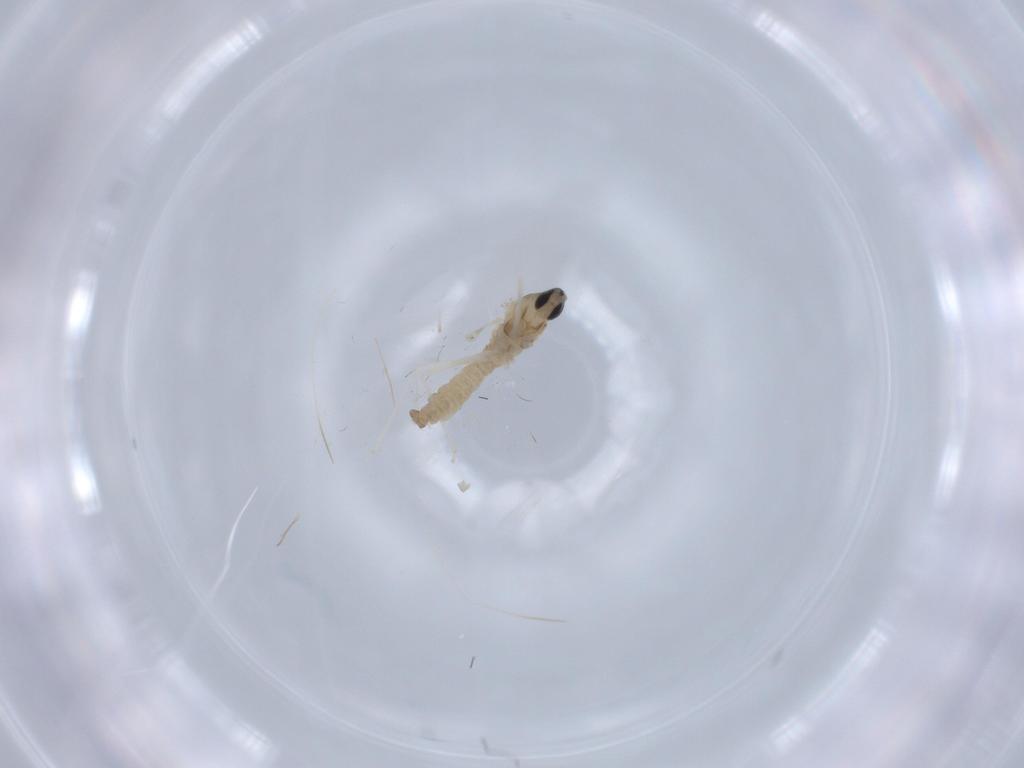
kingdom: Animalia
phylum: Arthropoda
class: Insecta
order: Diptera
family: Cecidomyiidae
